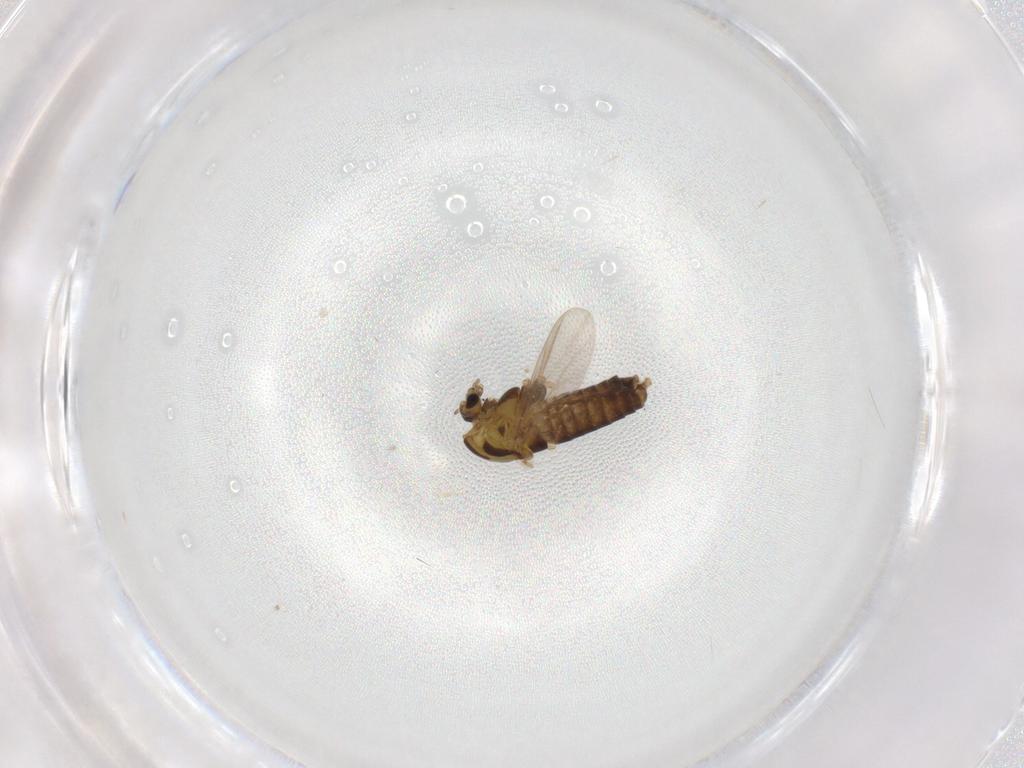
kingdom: Animalia
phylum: Arthropoda
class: Insecta
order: Diptera
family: Chironomidae
